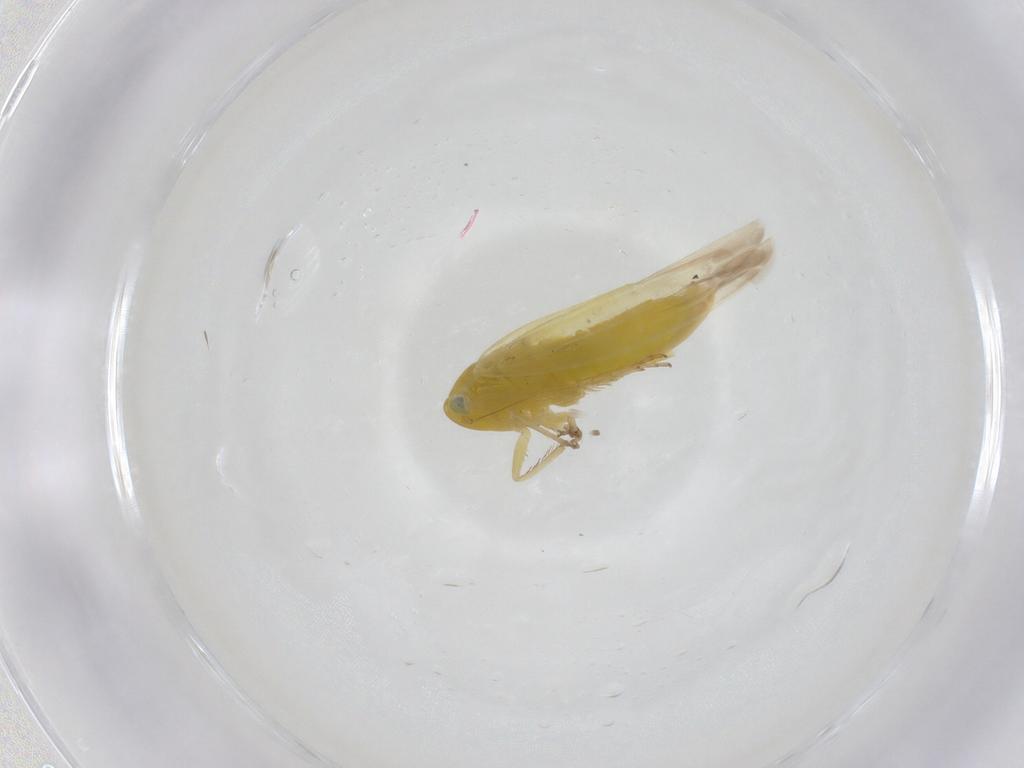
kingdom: Animalia
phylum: Arthropoda
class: Insecta
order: Hemiptera
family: Cicadellidae
